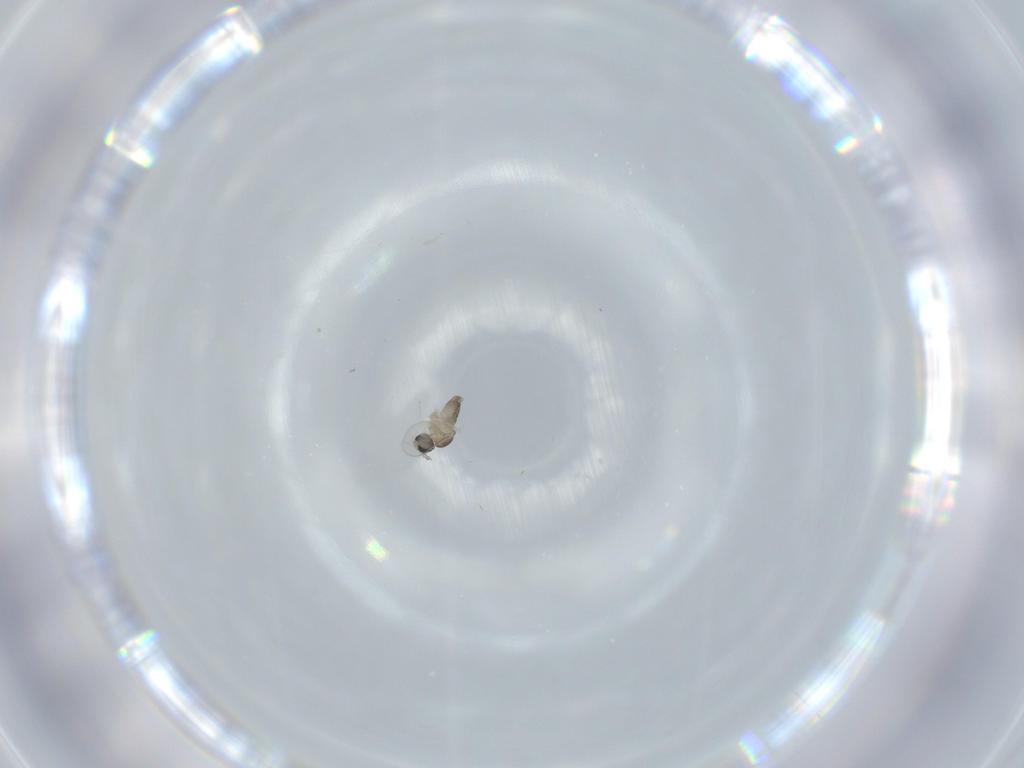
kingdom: Animalia
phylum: Arthropoda
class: Insecta
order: Diptera
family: Cecidomyiidae
